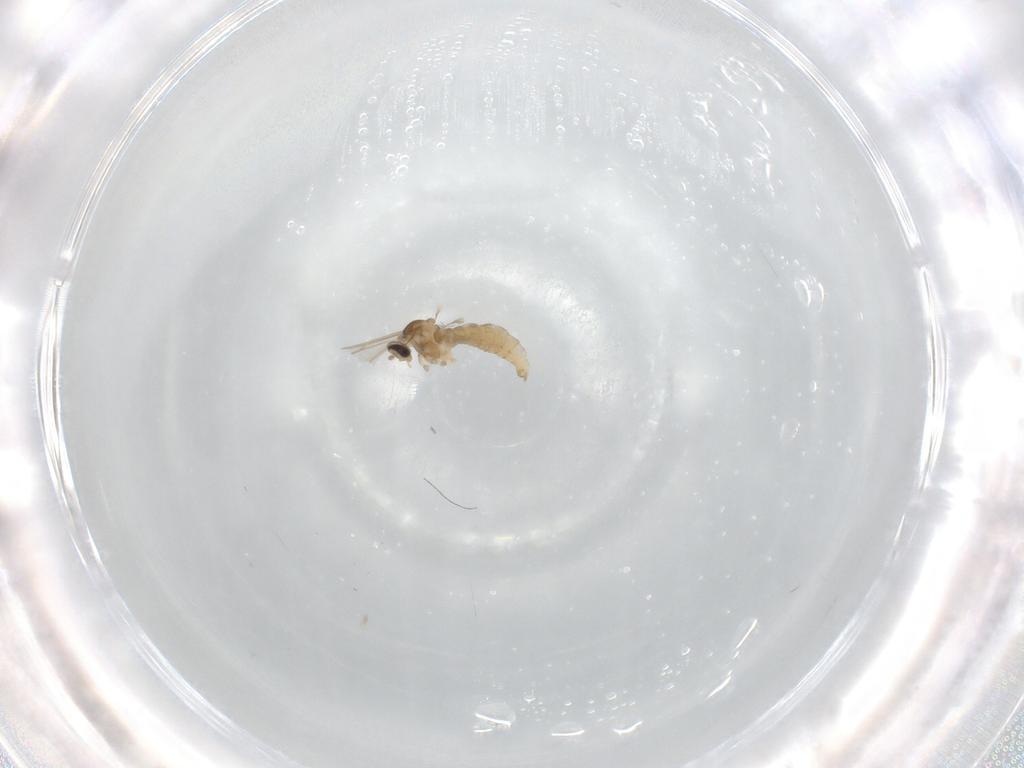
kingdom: Animalia
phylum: Arthropoda
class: Insecta
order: Diptera
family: Cecidomyiidae
